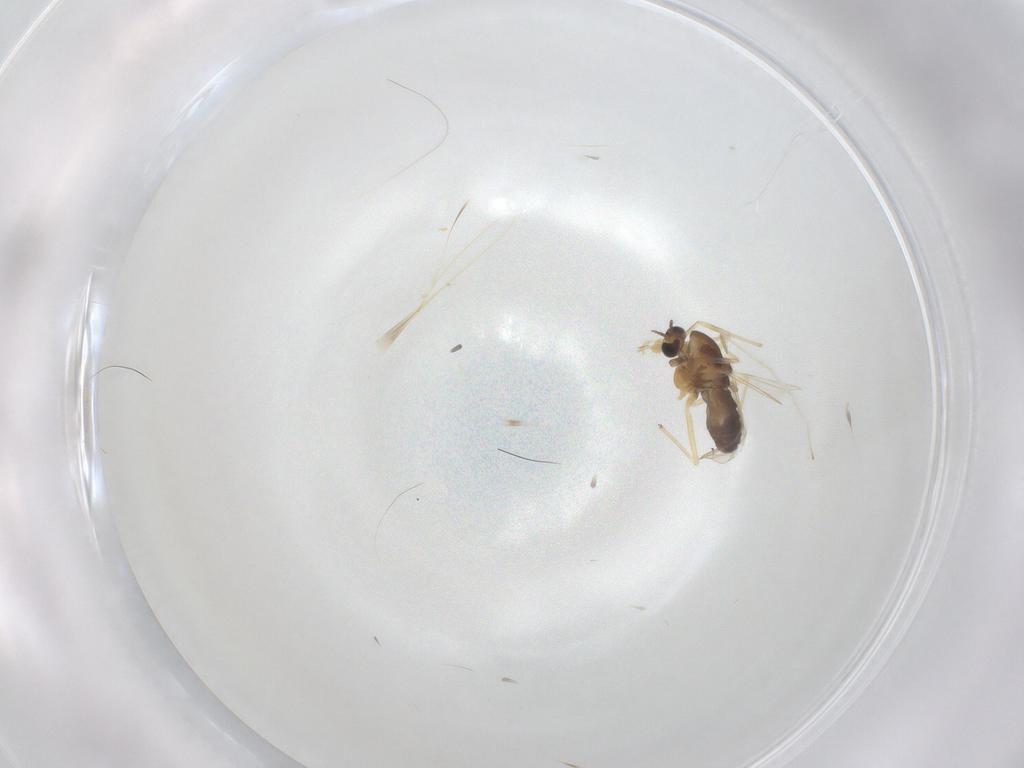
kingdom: Animalia
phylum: Arthropoda
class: Insecta
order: Diptera
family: Chironomidae
